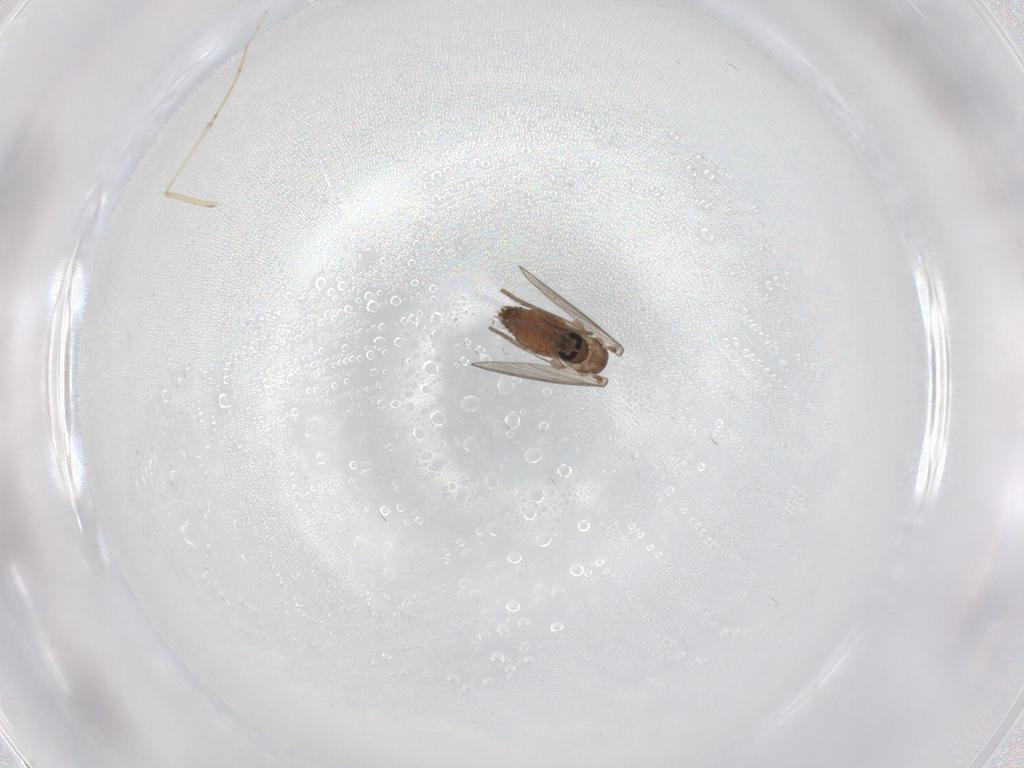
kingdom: Animalia
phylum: Arthropoda
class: Insecta
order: Diptera
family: Psychodidae
